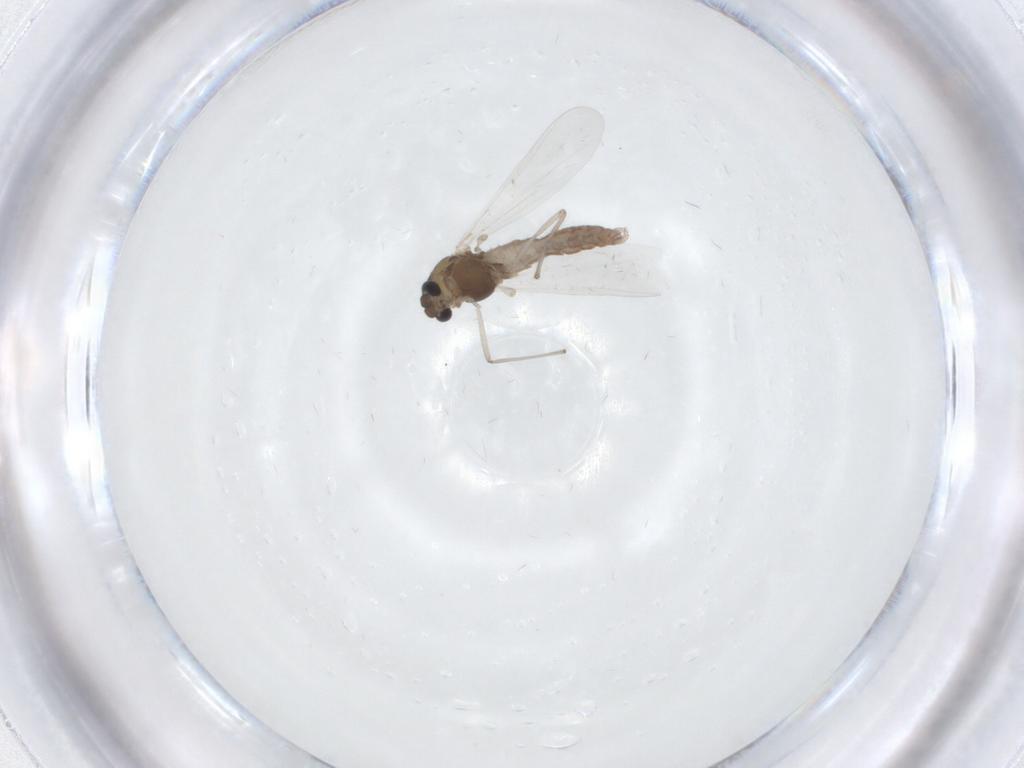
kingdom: Animalia
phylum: Arthropoda
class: Insecta
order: Diptera
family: Chironomidae
